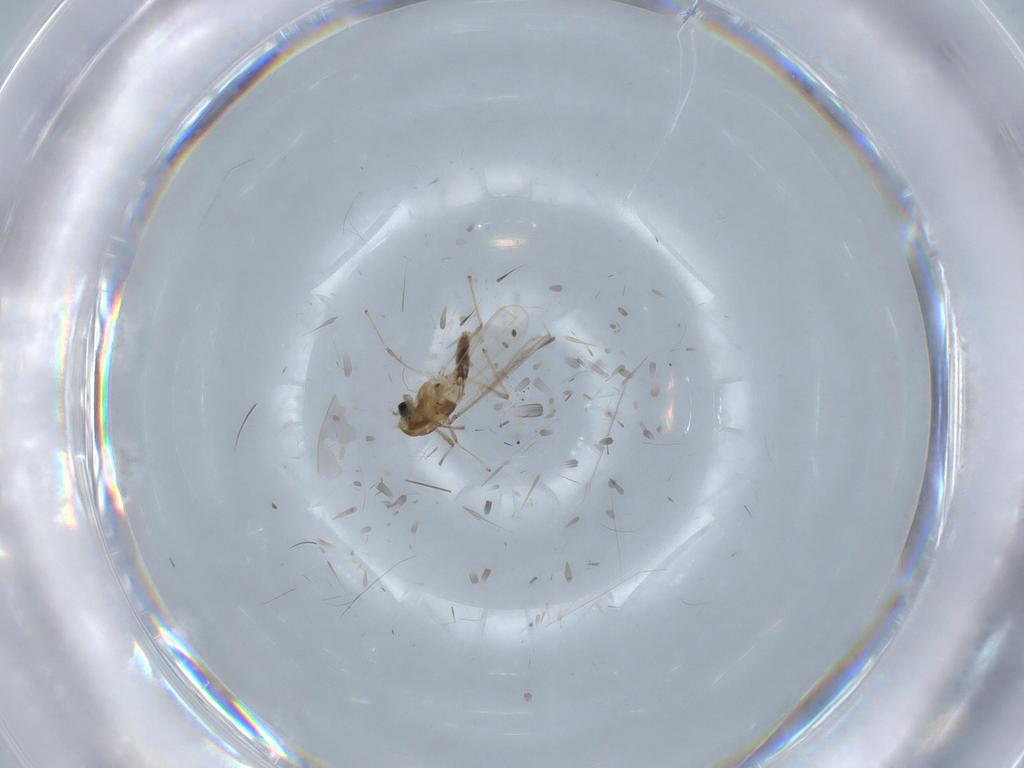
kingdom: Animalia
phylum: Arthropoda
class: Insecta
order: Diptera
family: Chironomidae
